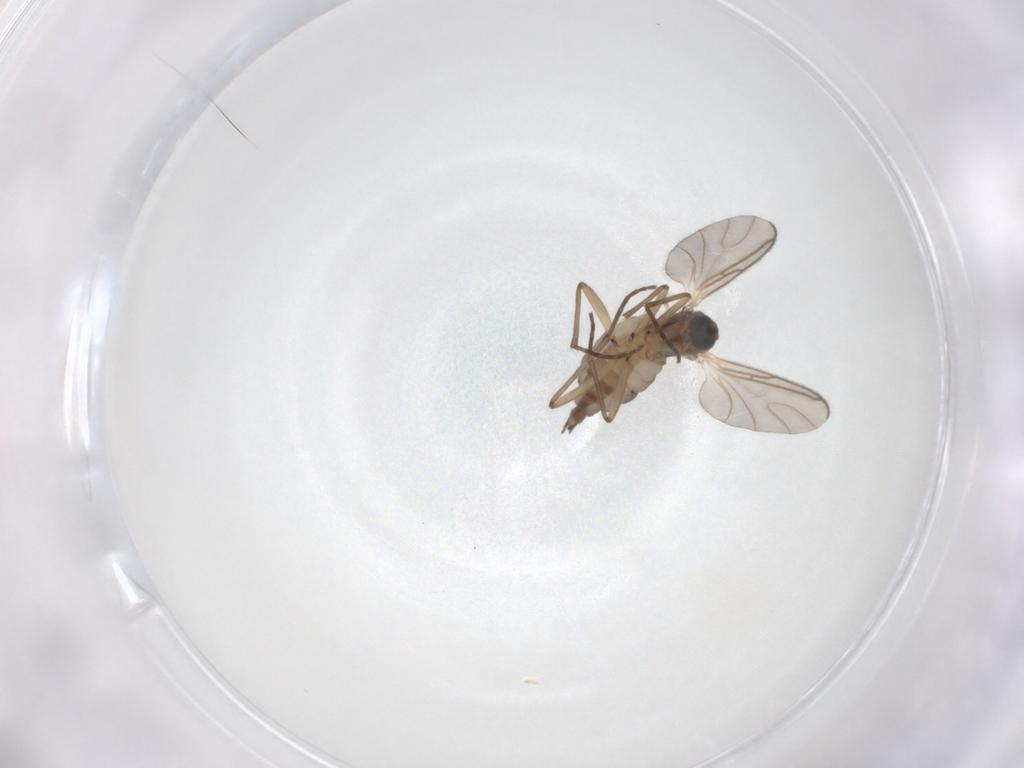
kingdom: Animalia
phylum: Arthropoda
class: Insecta
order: Diptera
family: Sciaridae
